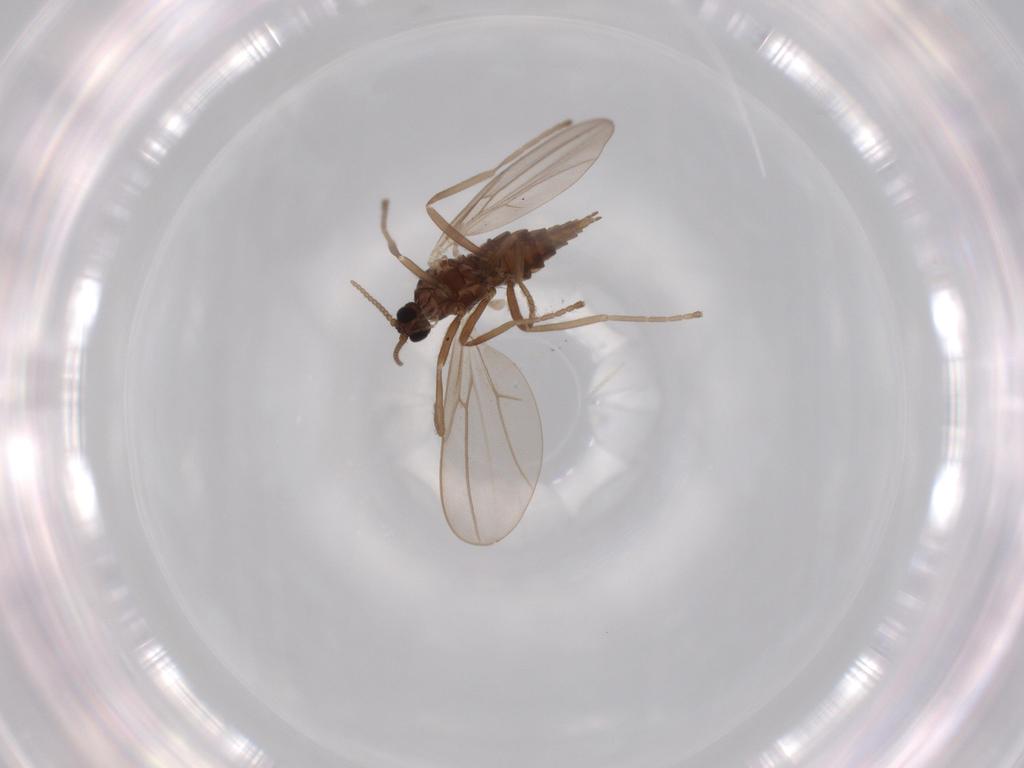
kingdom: Animalia
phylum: Arthropoda
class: Insecta
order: Diptera
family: Cecidomyiidae
